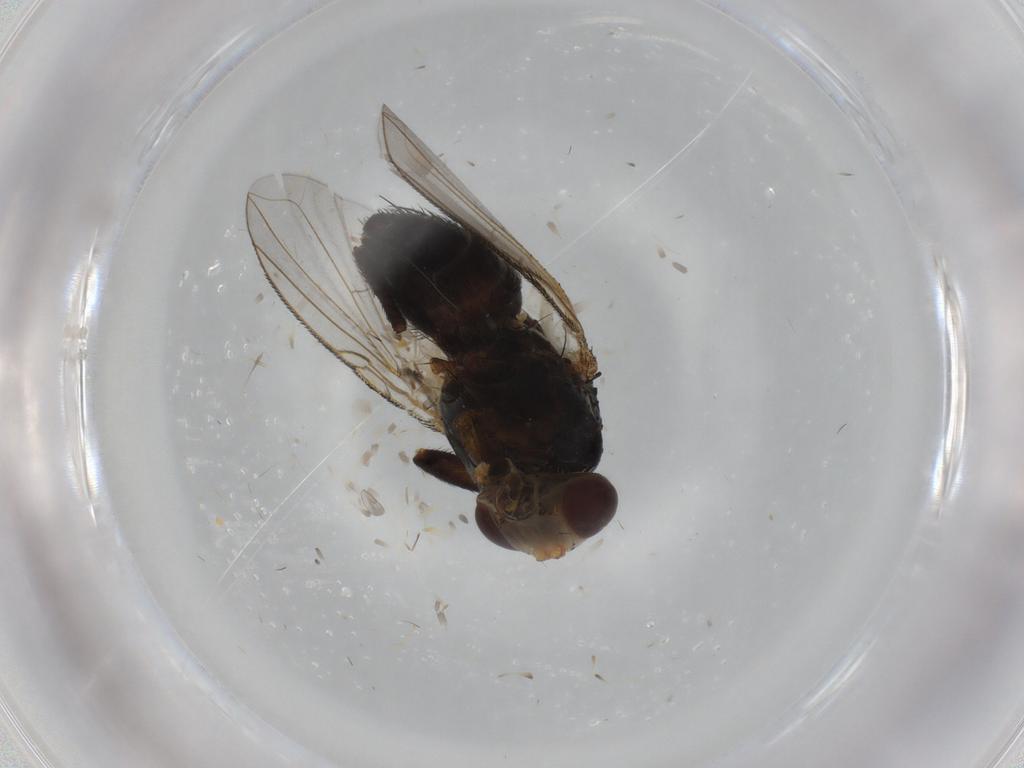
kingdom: Animalia
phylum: Arthropoda
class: Insecta
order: Diptera
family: Tachinidae
